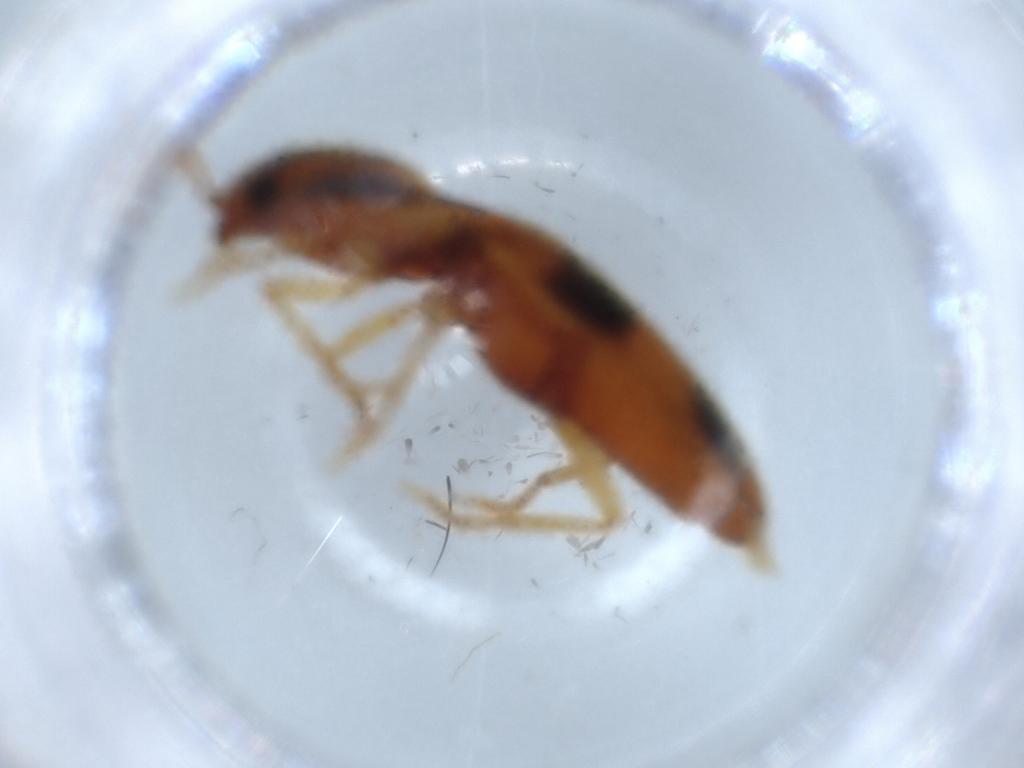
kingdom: Animalia
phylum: Arthropoda
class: Insecta
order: Coleoptera
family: Elateridae
